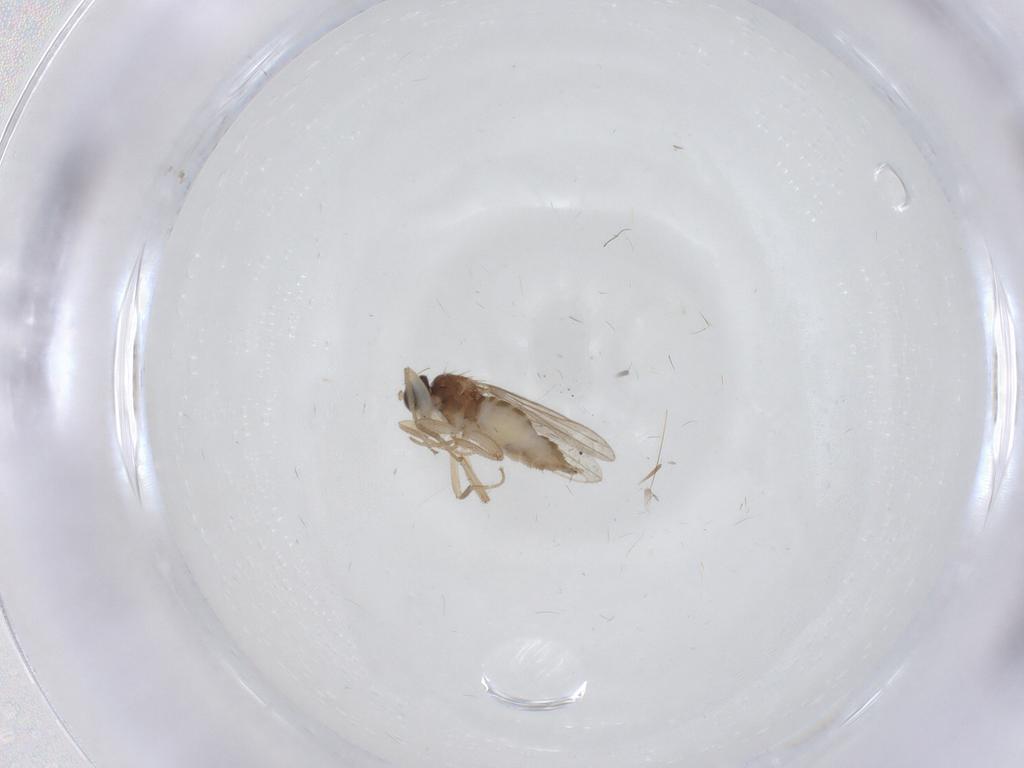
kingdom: Animalia
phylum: Arthropoda
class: Insecta
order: Diptera
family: Hybotidae
